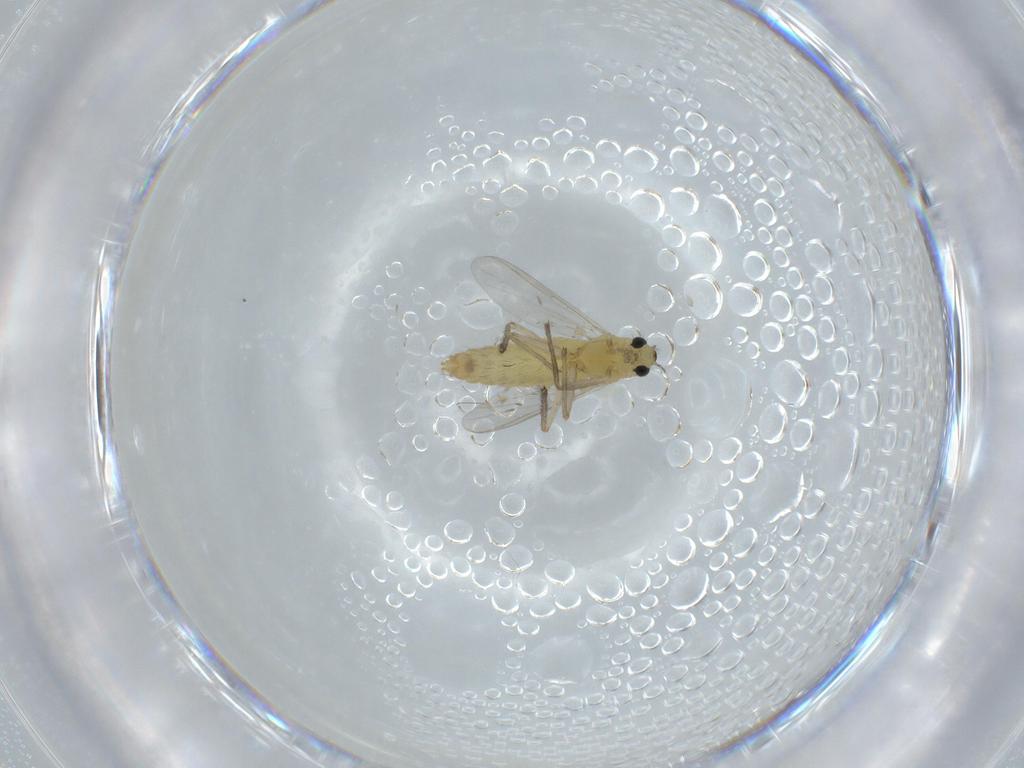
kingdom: Animalia
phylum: Arthropoda
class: Insecta
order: Diptera
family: Chironomidae
